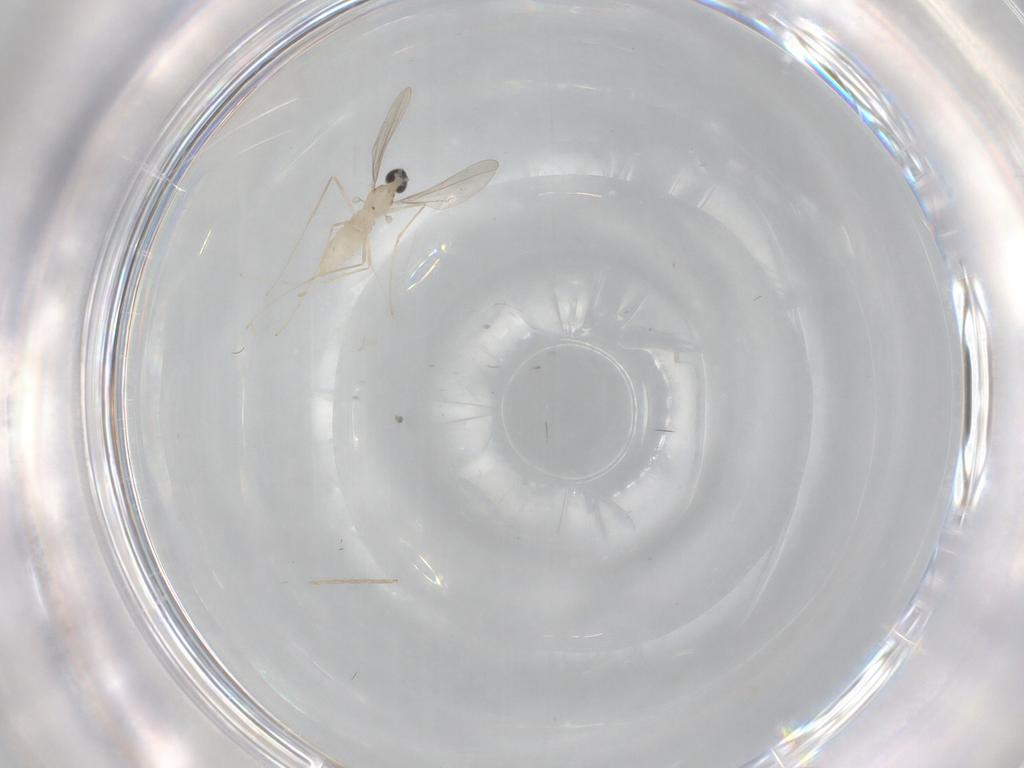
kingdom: Animalia
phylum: Arthropoda
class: Insecta
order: Diptera
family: Cecidomyiidae
